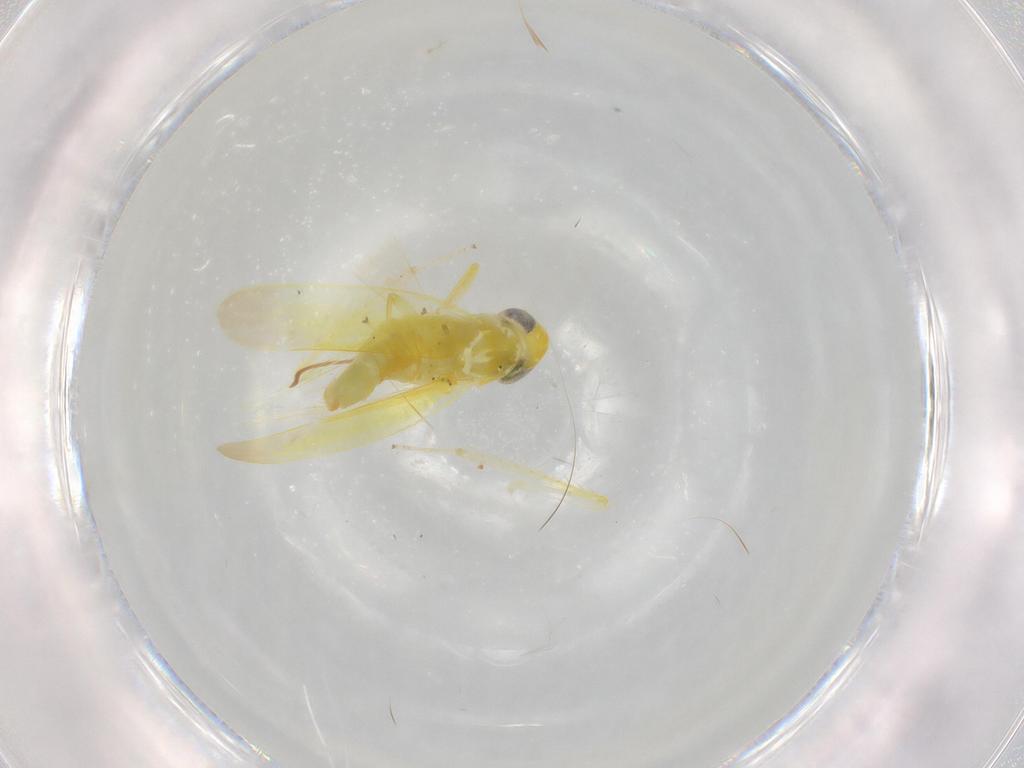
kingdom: Animalia
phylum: Arthropoda
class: Insecta
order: Hemiptera
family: Cicadellidae
